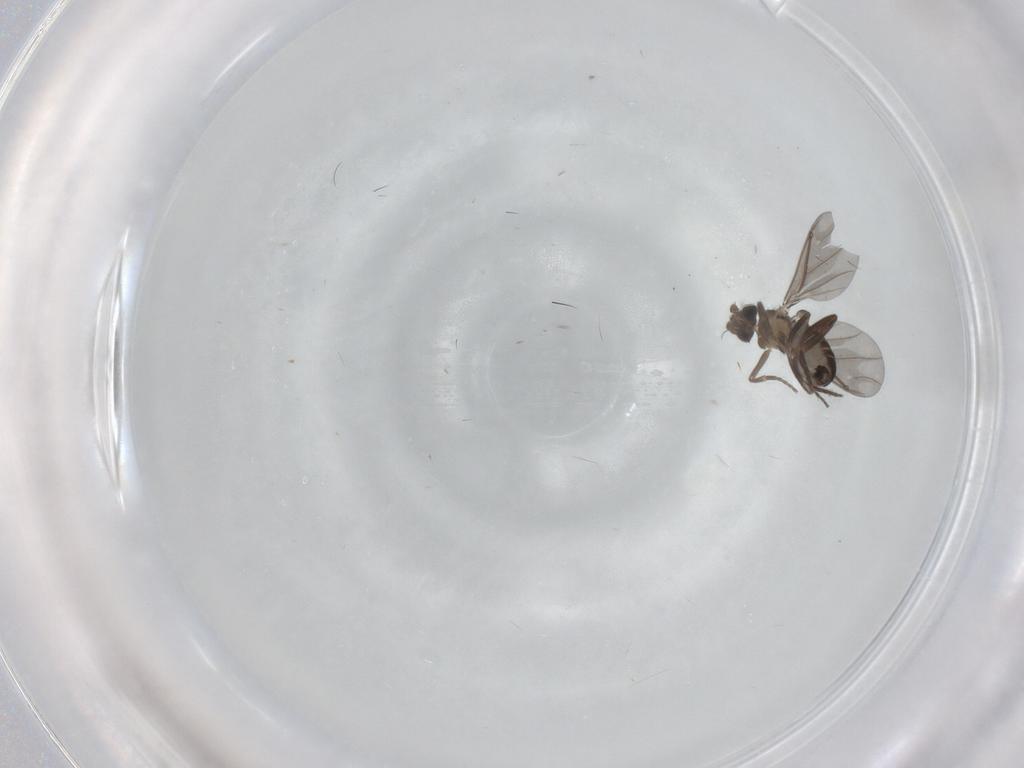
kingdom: Animalia
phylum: Arthropoda
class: Insecta
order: Diptera
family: Phoridae
